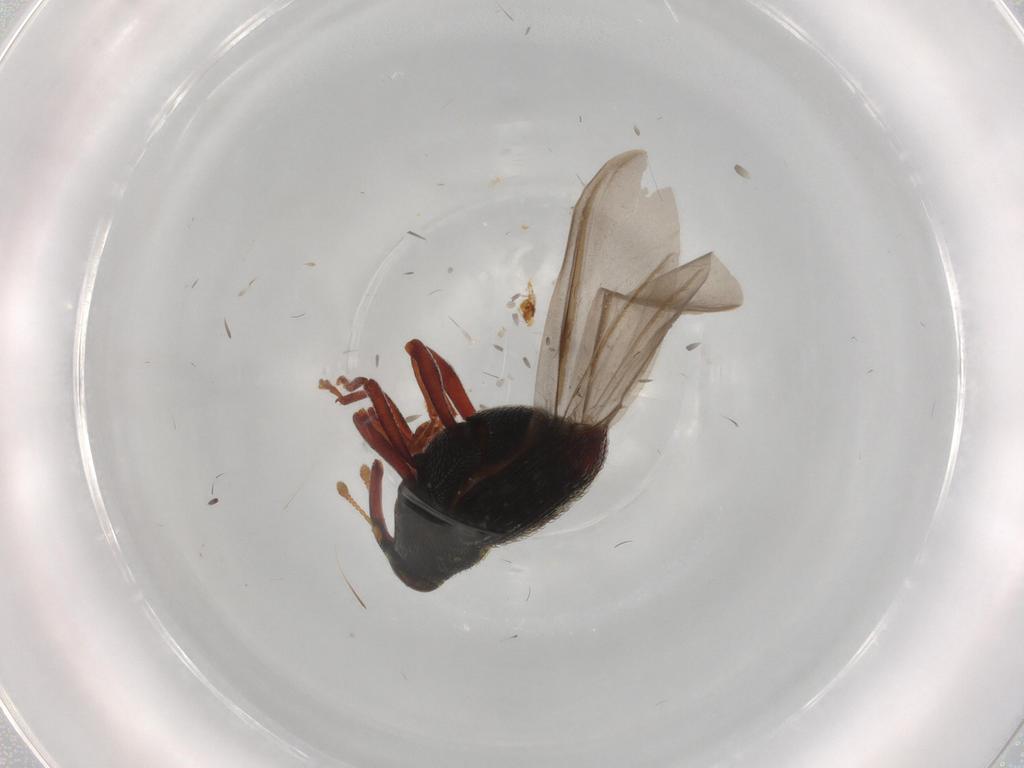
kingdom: Animalia
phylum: Arthropoda
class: Insecta
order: Coleoptera
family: Curculionidae
